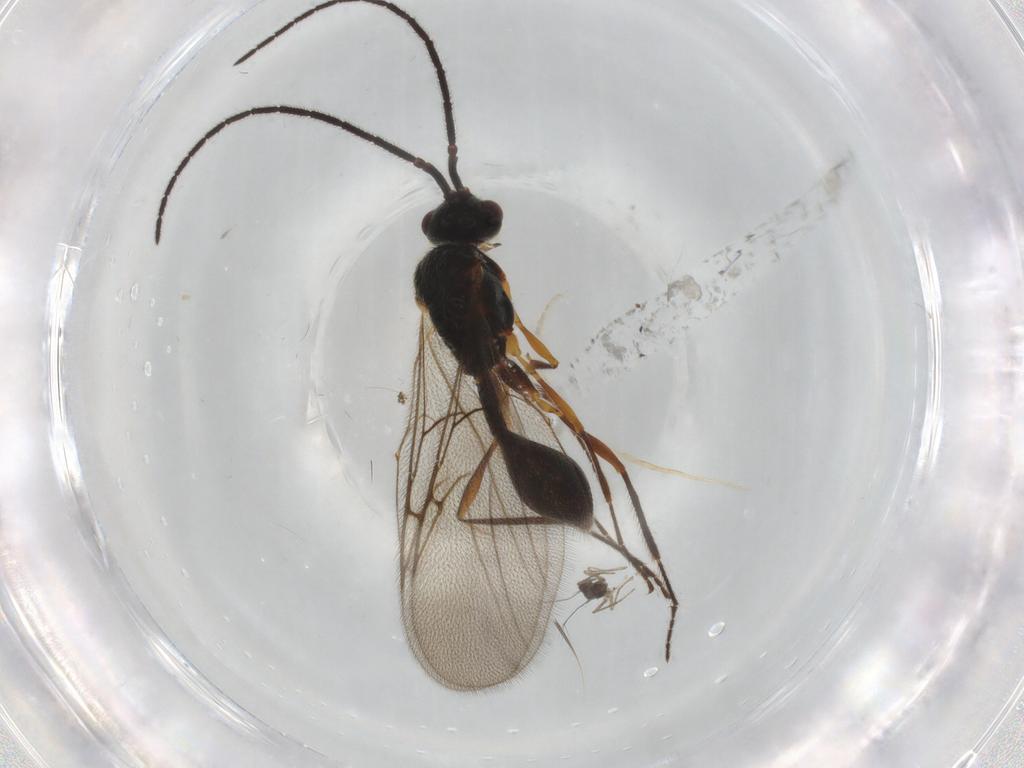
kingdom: Animalia
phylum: Arthropoda
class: Insecta
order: Hymenoptera
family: Mymaridae
